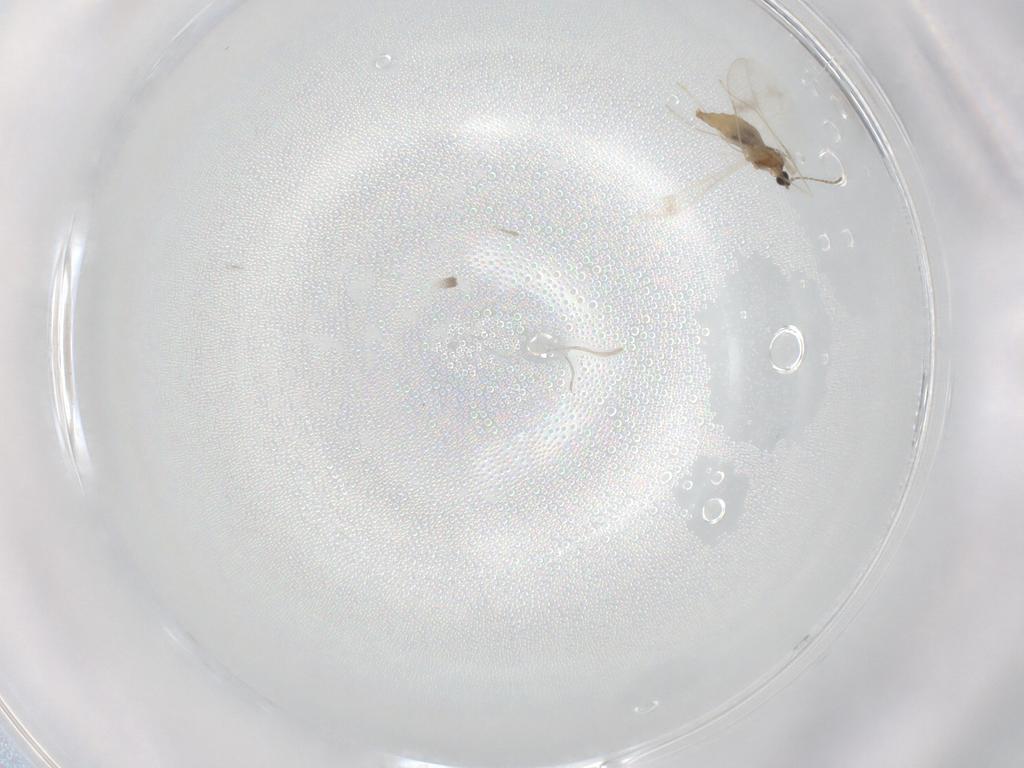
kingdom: Animalia
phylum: Arthropoda
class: Insecta
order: Diptera
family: Cecidomyiidae
